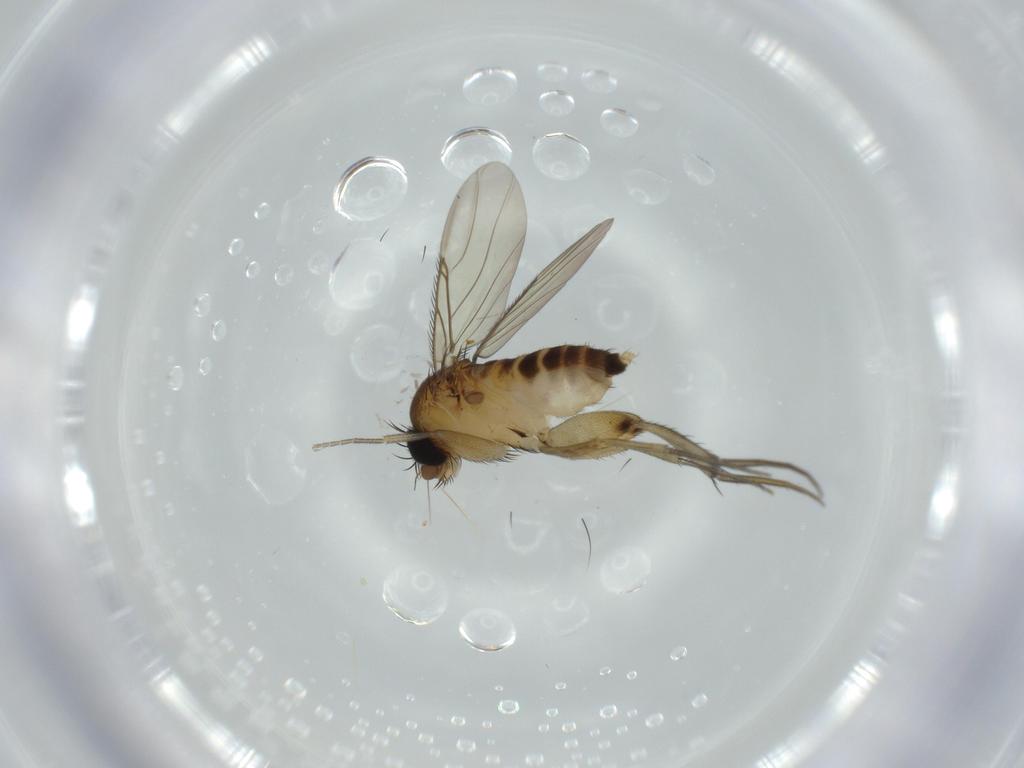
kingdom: Animalia
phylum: Arthropoda
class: Insecta
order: Diptera
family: Phoridae
